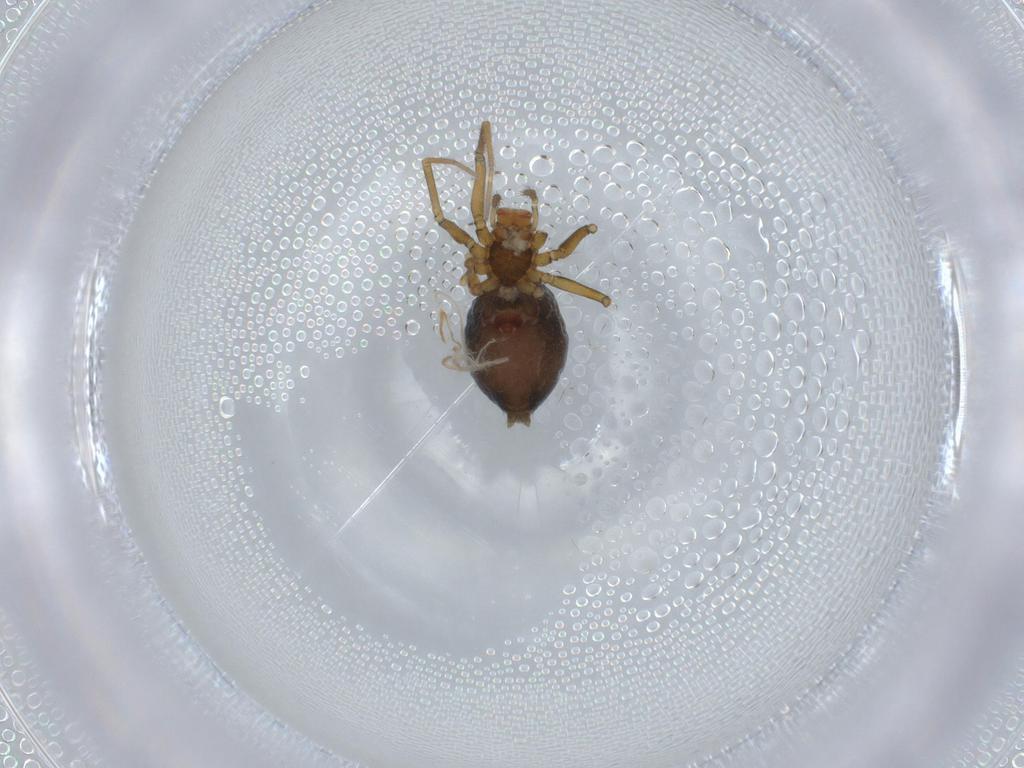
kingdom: Animalia
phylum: Arthropoda
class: Arachnida
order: Araneae
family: Linyphiidae
